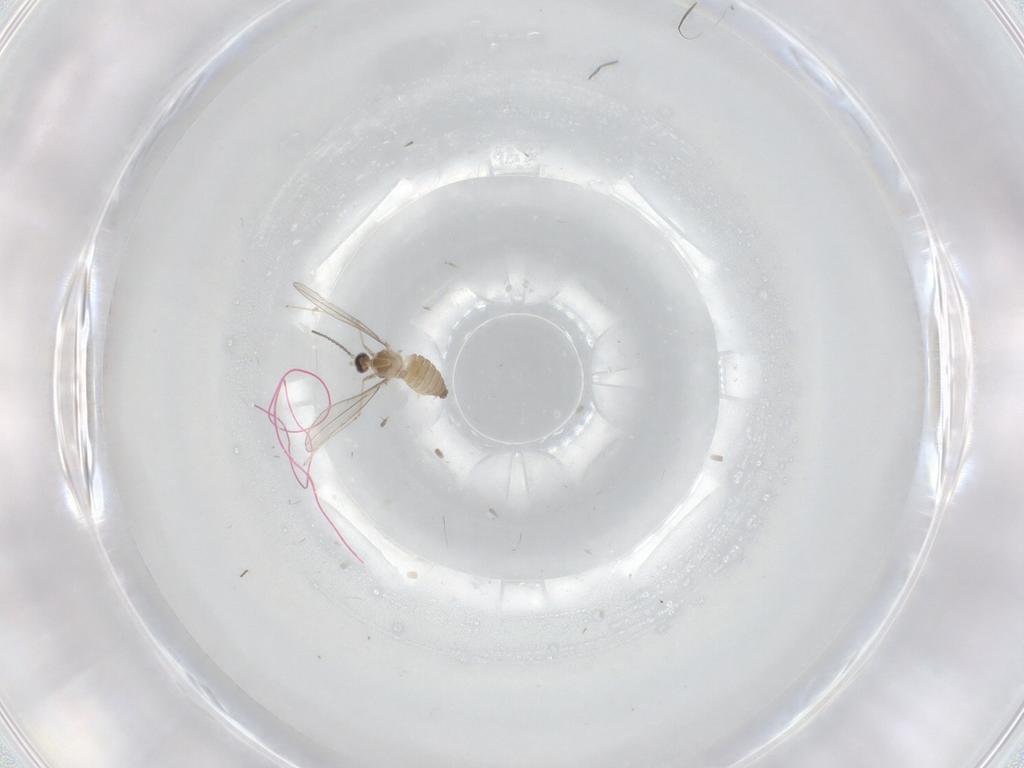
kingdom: Animalia
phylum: Arthropoda
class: Insecta
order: Diptera
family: Cecidomyiidae
